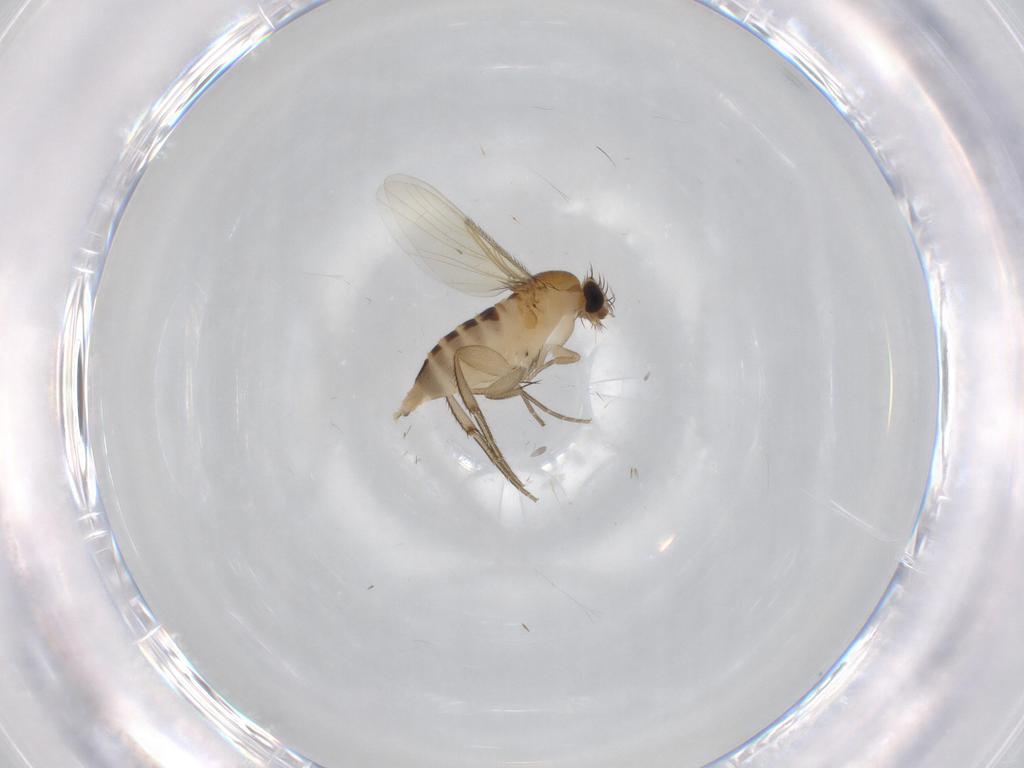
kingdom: Animalia
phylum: Arthropoda
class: Insecta
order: Diptera
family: Phoridae
